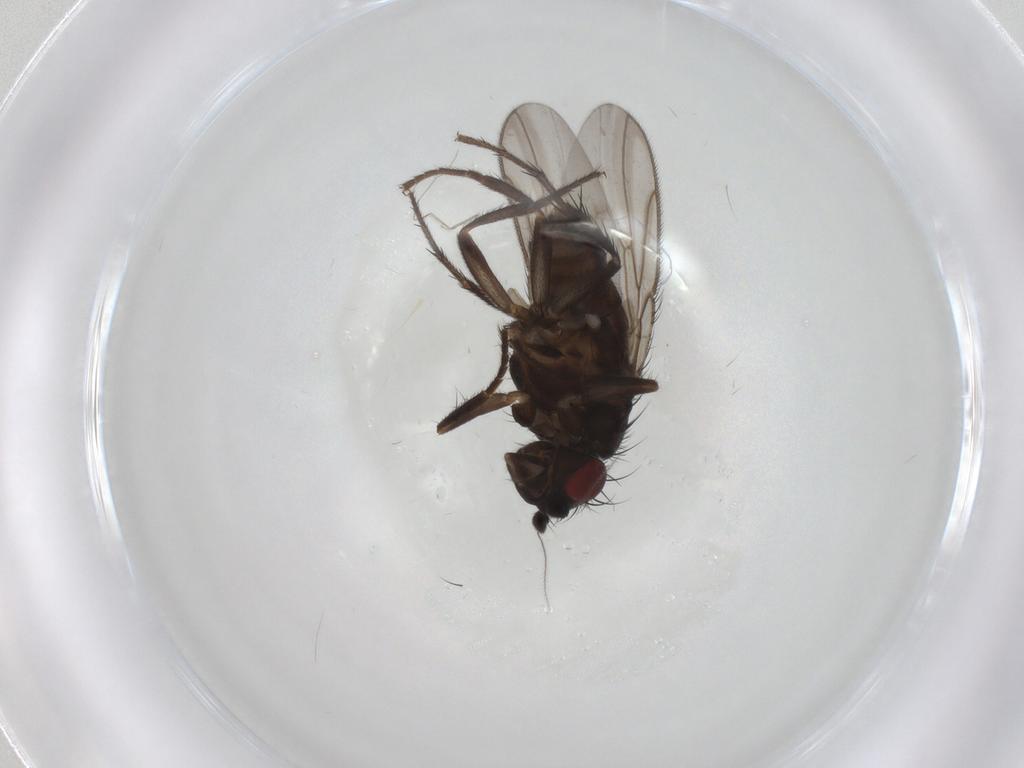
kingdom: Animalia
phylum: Arthropoda
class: Insecta
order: Diptera
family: Sphaeroceridae
